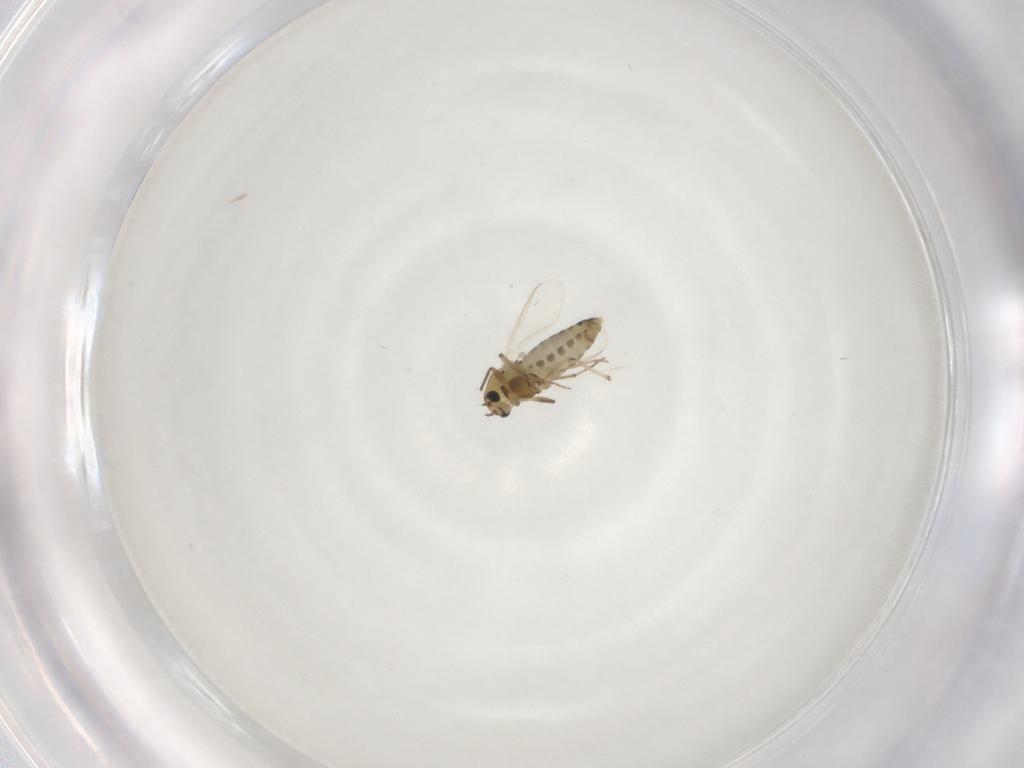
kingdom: Animalia
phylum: Arthropoda
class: Insecta
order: Diptera
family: Chironomidae
